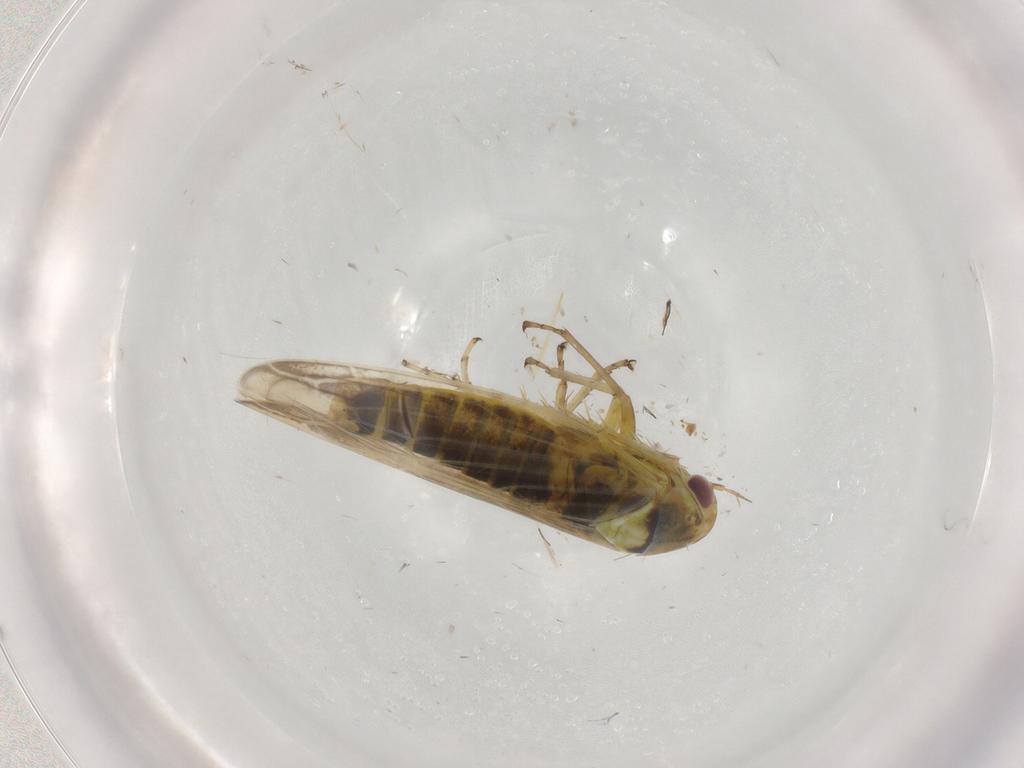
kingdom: Animalia
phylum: Arthropoda
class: Insecta
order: Hemiptera
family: Cicadellidae
